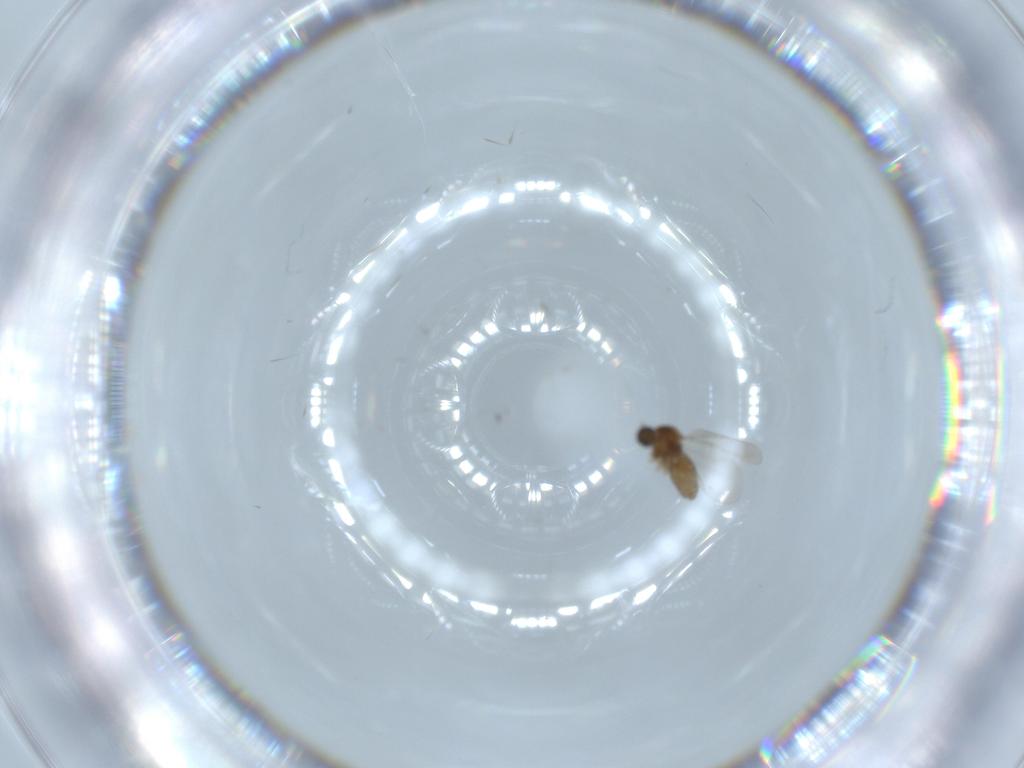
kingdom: Animalia
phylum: Arthropoda
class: Insecta
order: Diptera
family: Cecidomyiidae
